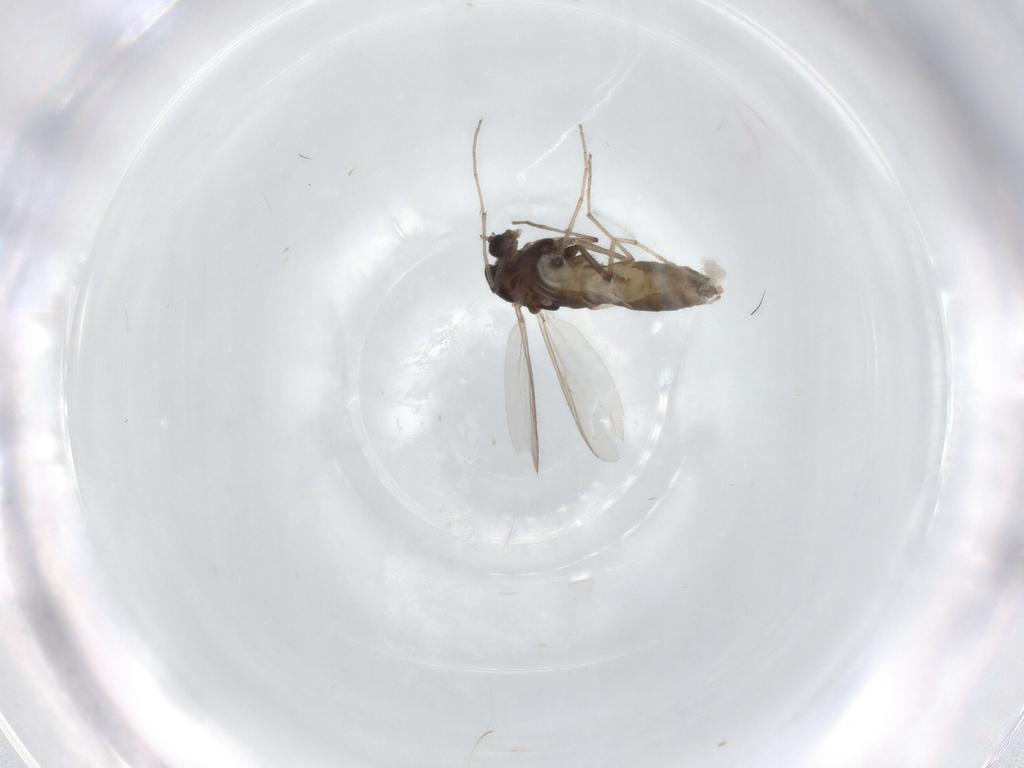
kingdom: Animalia
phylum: Arthropoda
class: Insecta
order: Diptera
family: Chironomidae
